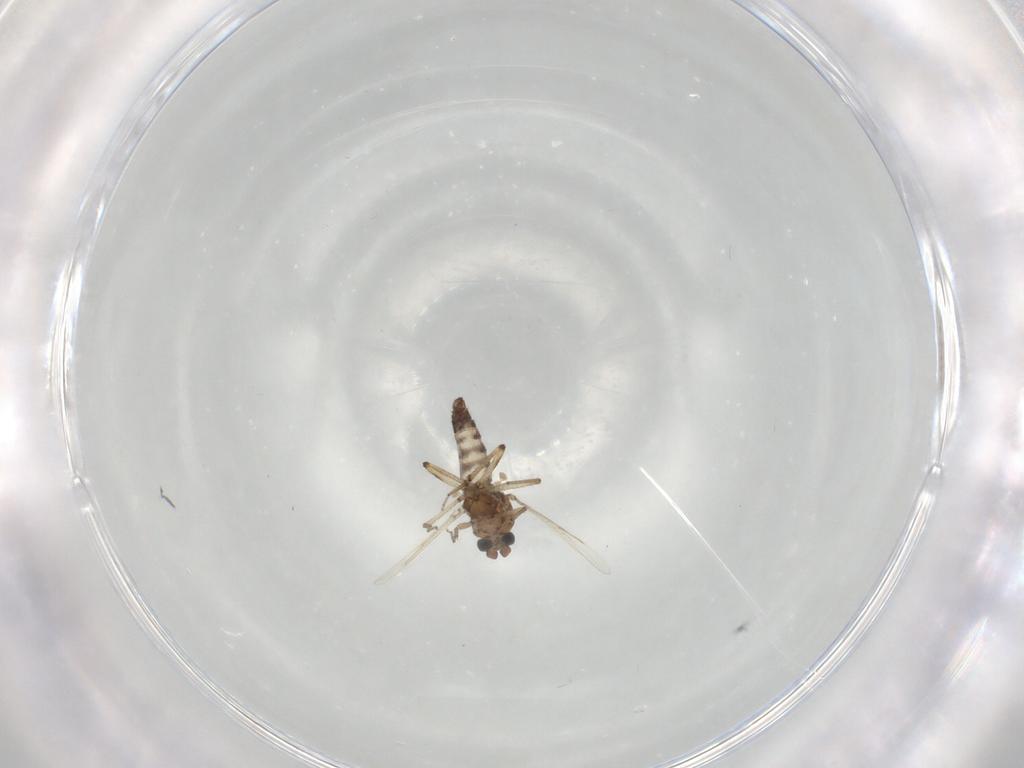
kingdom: Animalia
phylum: Arthropoda
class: Insecta
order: Diptera
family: Ceratopogonidae
